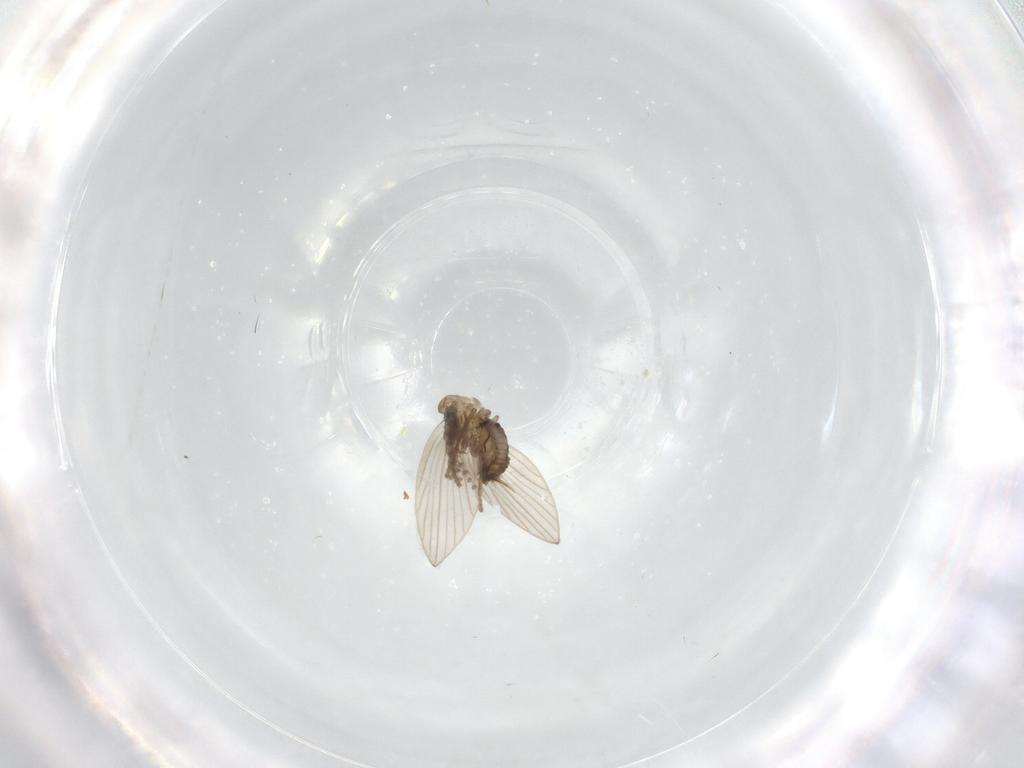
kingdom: Animalia
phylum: Arthropoda
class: Insecta
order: Diptera
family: Psychodidae
